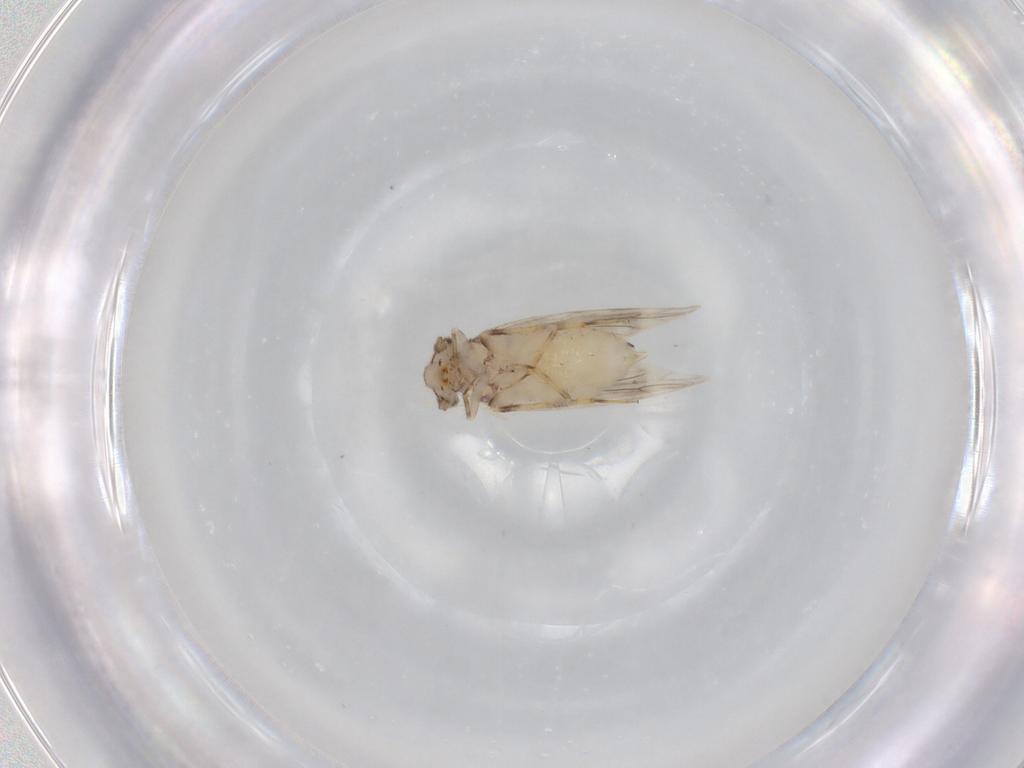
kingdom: Animalia
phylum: Arthropoda
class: Insecta
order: Psocodea
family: Lepidopsocidae
